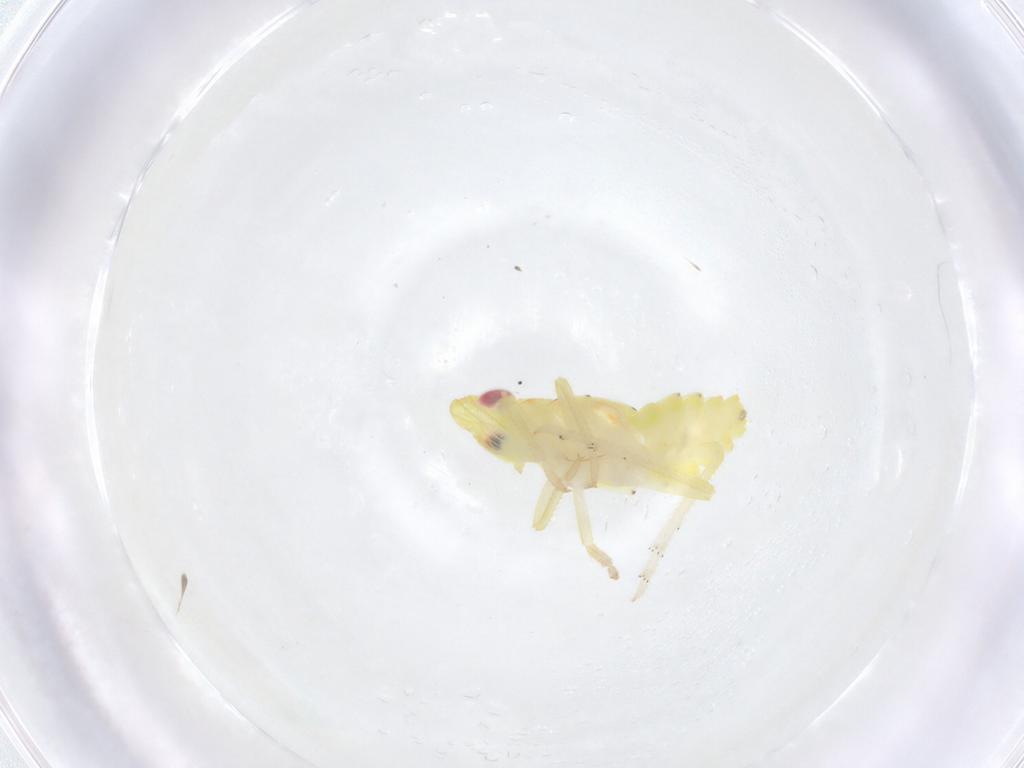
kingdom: Animalia
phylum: Arthropoda
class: Insecta
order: Hemiptera
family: Tropiduchidae
